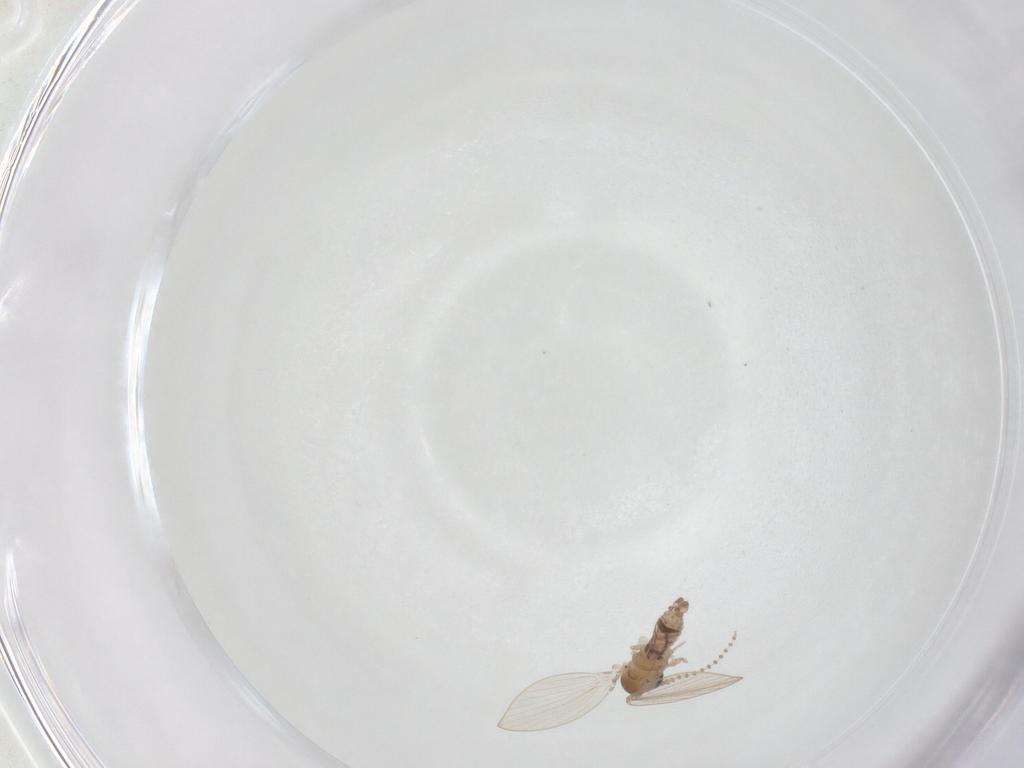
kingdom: Animalia
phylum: Arthropoda
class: Insecta
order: Diptera
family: Psychodidae
